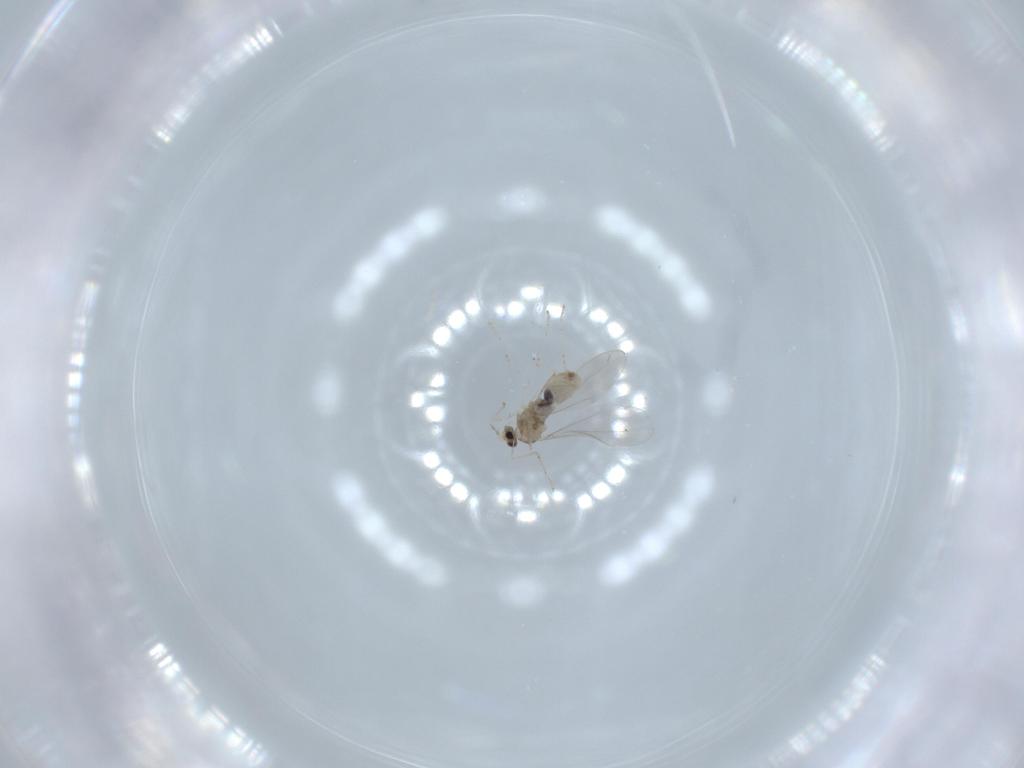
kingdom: Animalia
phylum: Arthropoda
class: Insecta
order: Diptera
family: Cecidomyiidae
